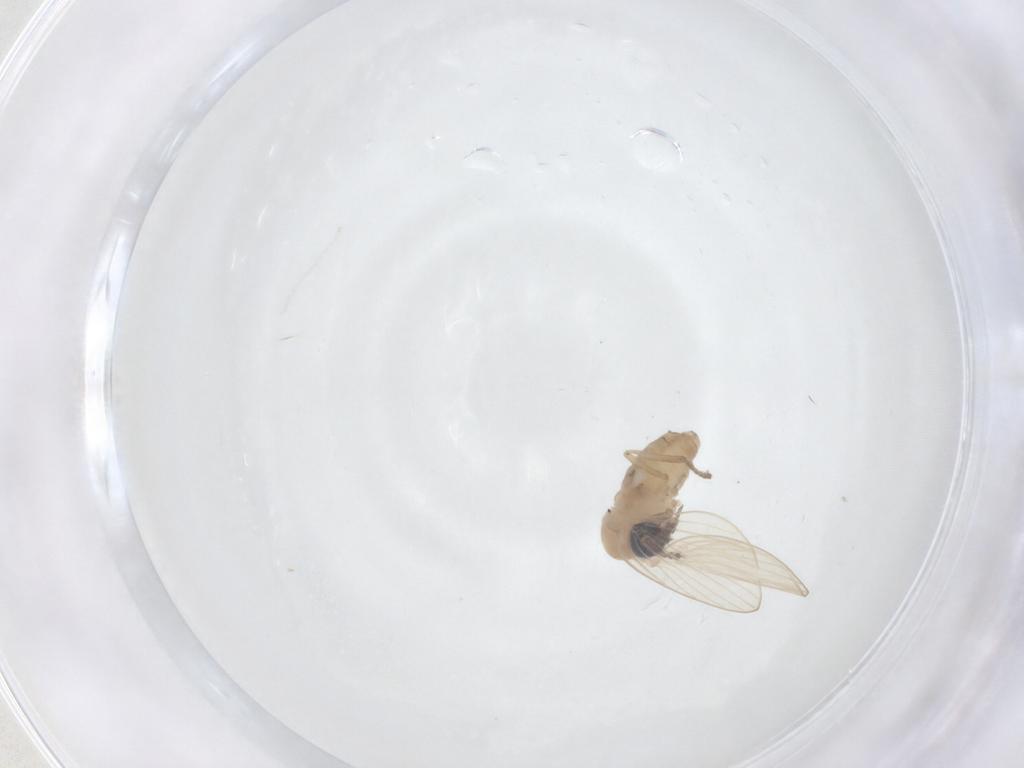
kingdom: Animalia
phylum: Arthropoda
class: Insecta
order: Diptera
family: Psychodidae
